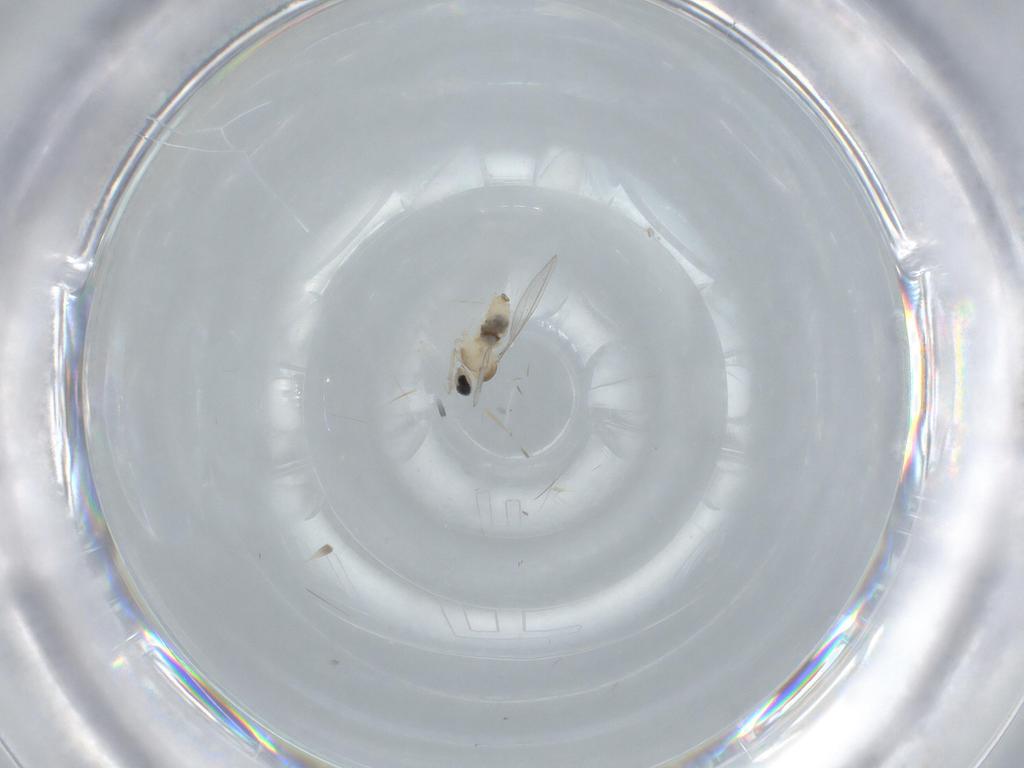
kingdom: Animalia
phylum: Arthropoda
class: Insecta
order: Diptera
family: Cecidomyiidae
